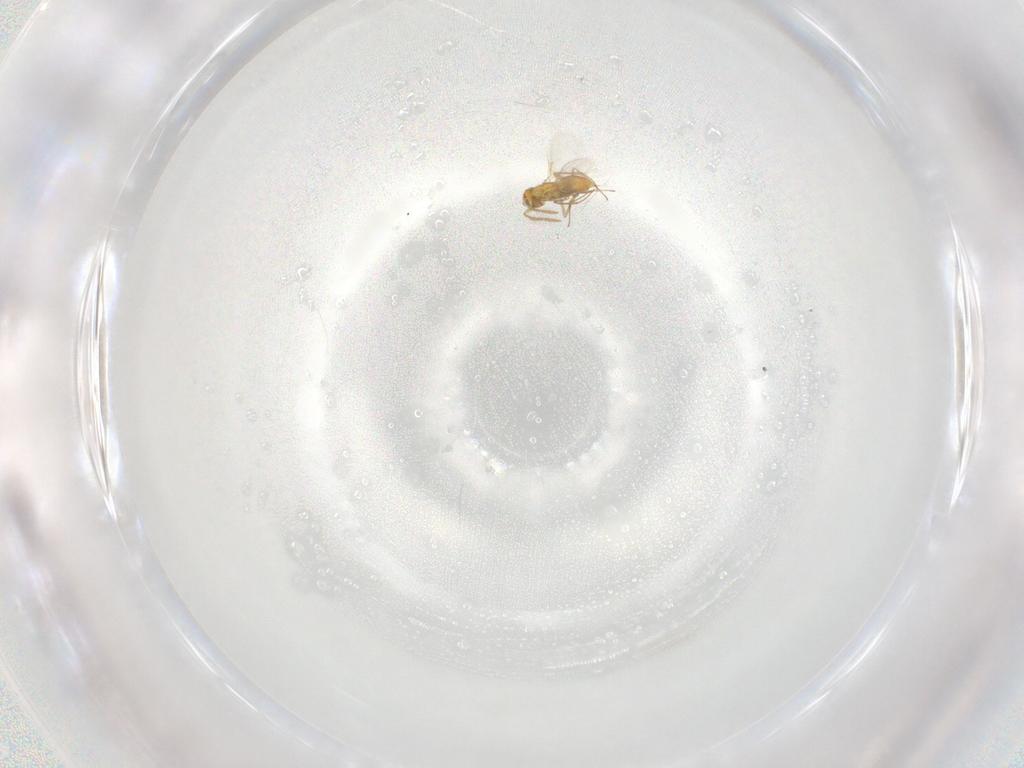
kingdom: Animalia
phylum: Arthropoda
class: Insecta
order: Hymenoptera
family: Aphelinidae
